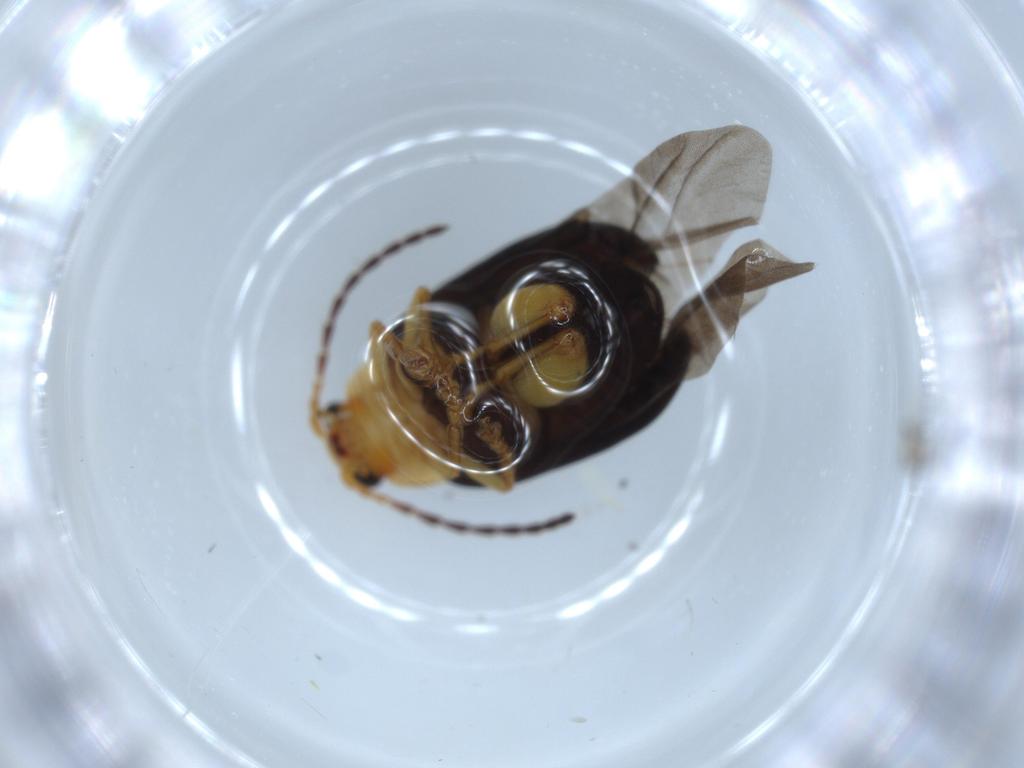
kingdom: Animalia
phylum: Arthropoda
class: Insecta
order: Coleoptera
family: Chrysomelidae
